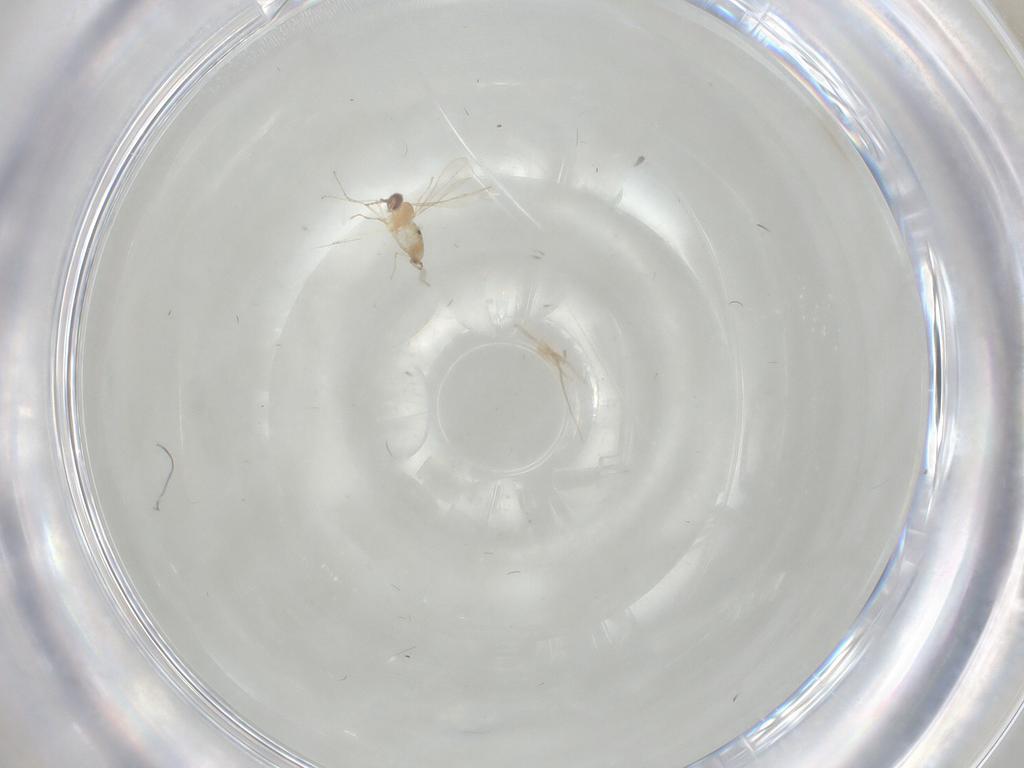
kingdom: Animalia
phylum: Arthropoda
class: Insecta
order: Diptera
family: Cecidomyiidae
